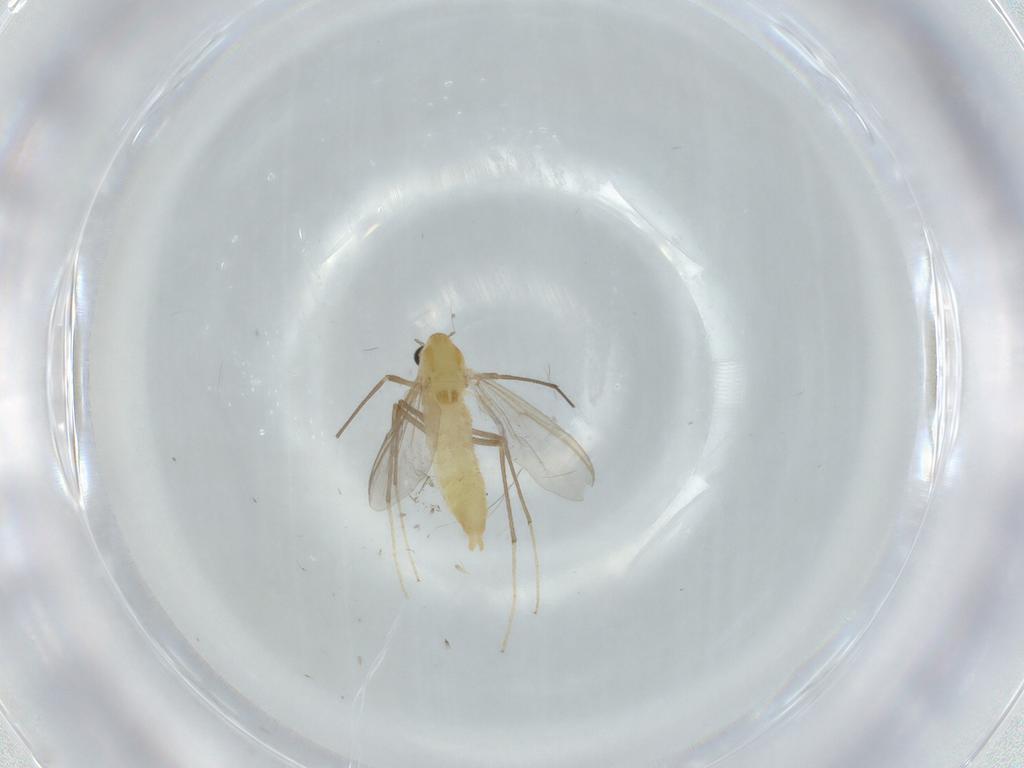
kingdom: Animalia
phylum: Arthropoda
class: Insecta
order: Diptera
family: Chironomidae
